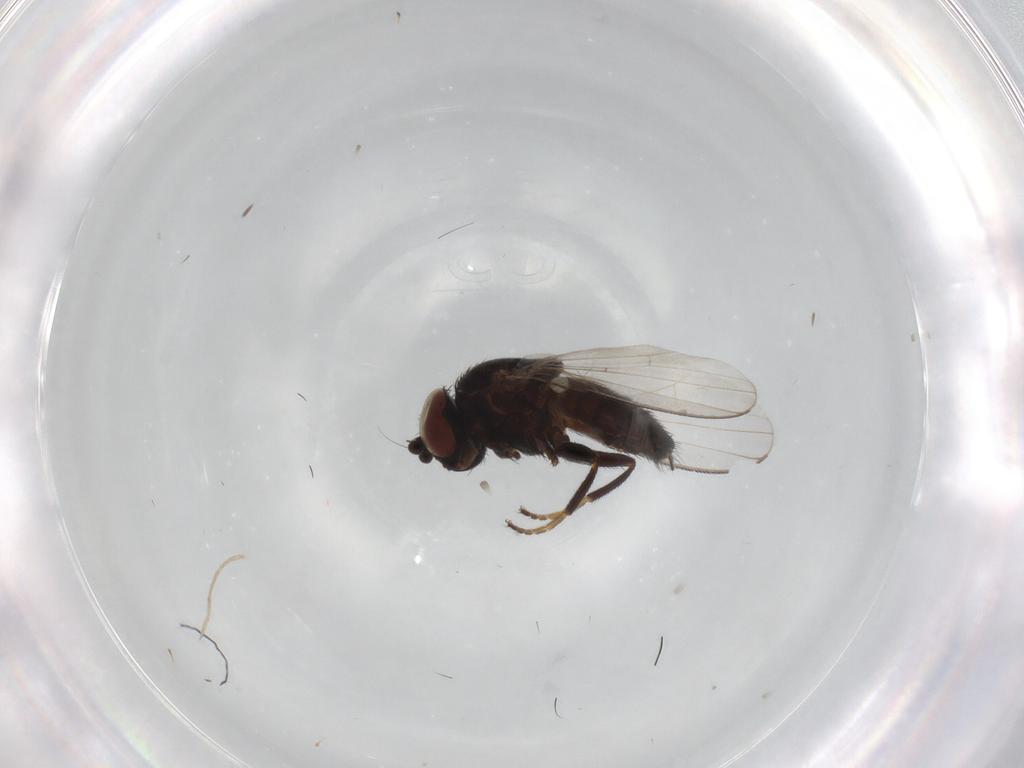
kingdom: Animalia
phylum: Arthropoda
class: Insecta
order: Diptera
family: Milichiidae
